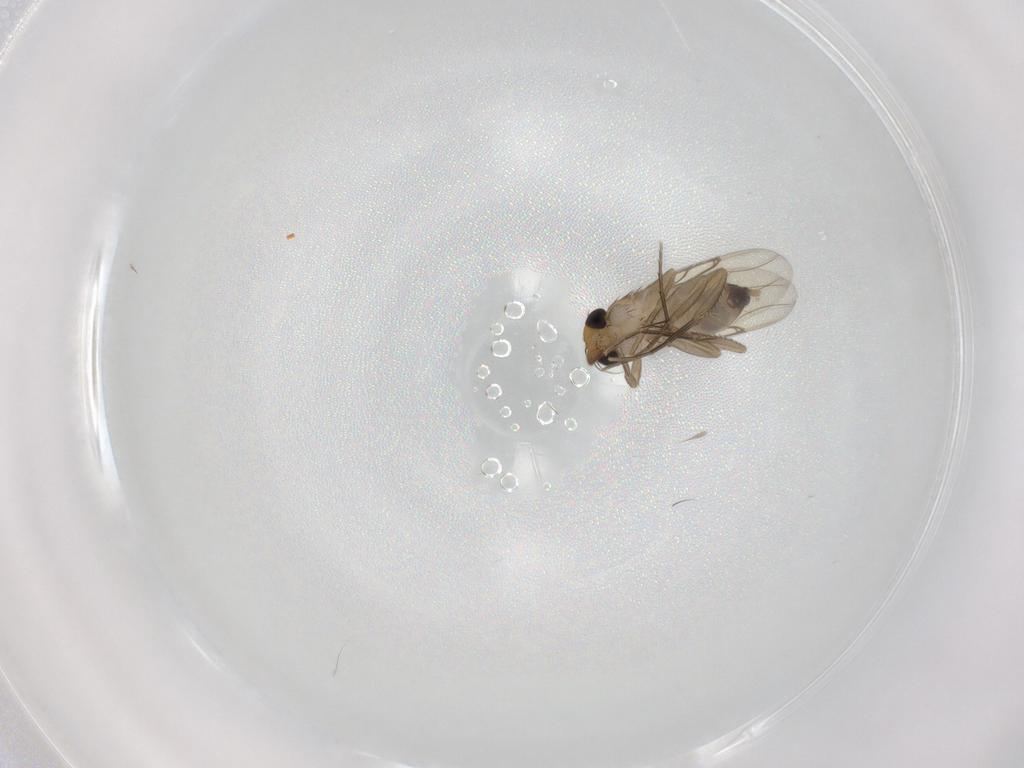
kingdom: Animalia
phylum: Arthropoda
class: Insecta
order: Diptera
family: Phoridae
